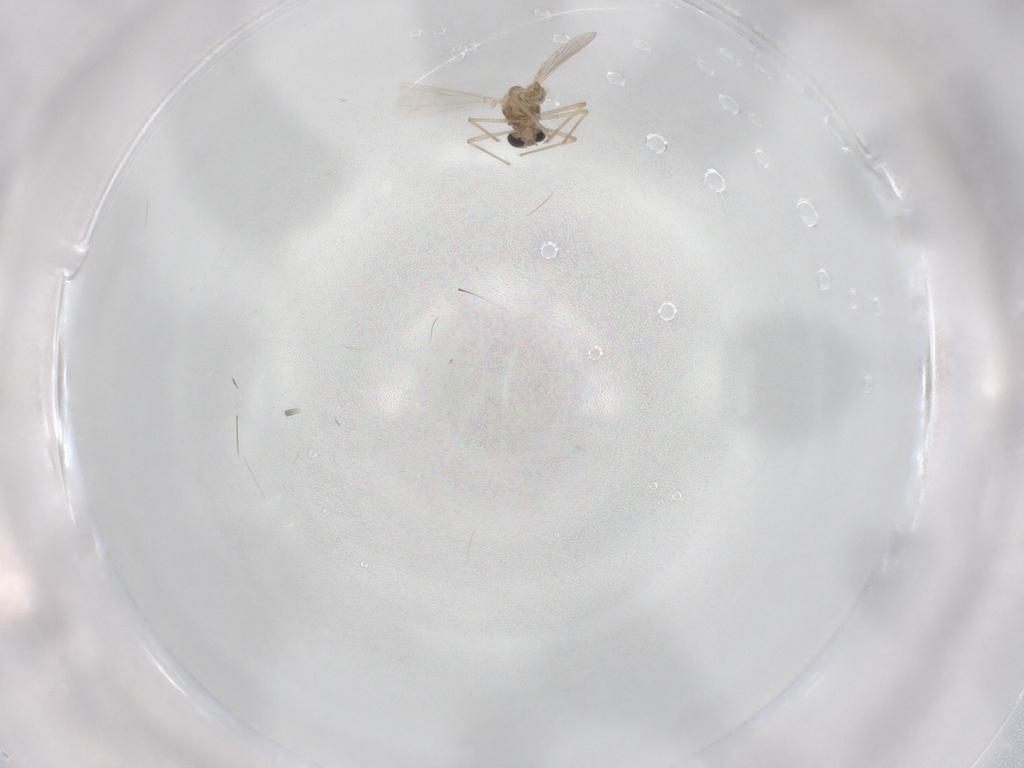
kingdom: Animalia
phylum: Arthropoda
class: Insecta
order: Diptera
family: Chironomidae
